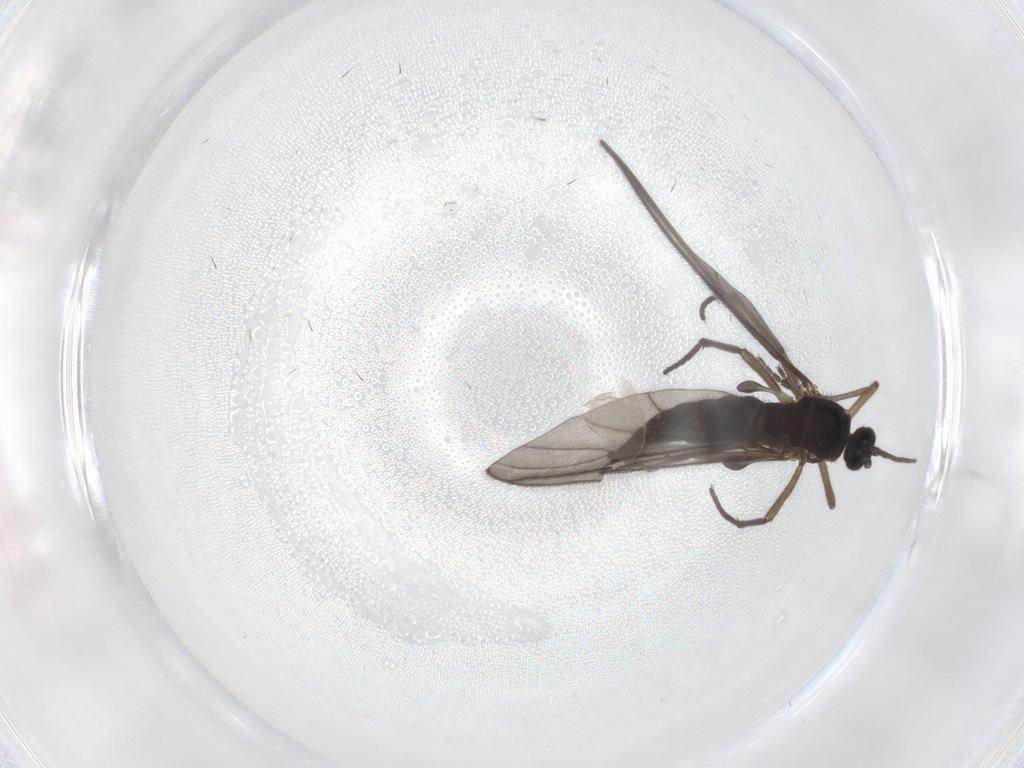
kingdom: Animalia
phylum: Arthropoda
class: Insecta
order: Diptera
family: Sciaridae
